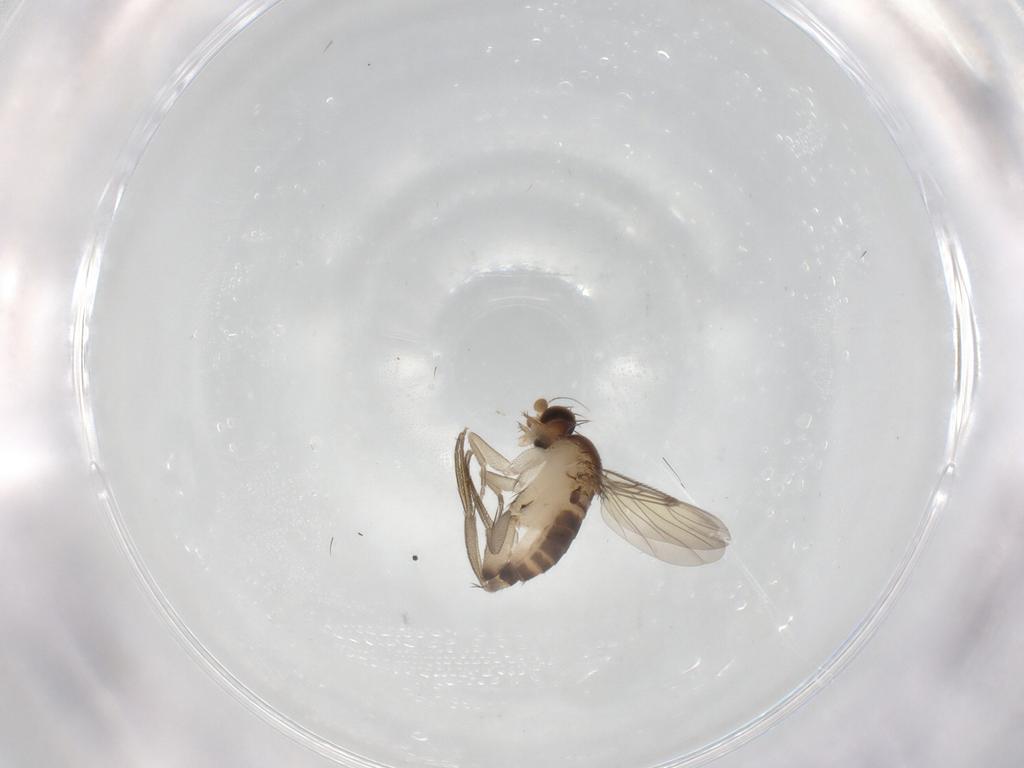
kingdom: Animalia
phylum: Arthropoda
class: Insecta
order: Diptera
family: Phoridae
